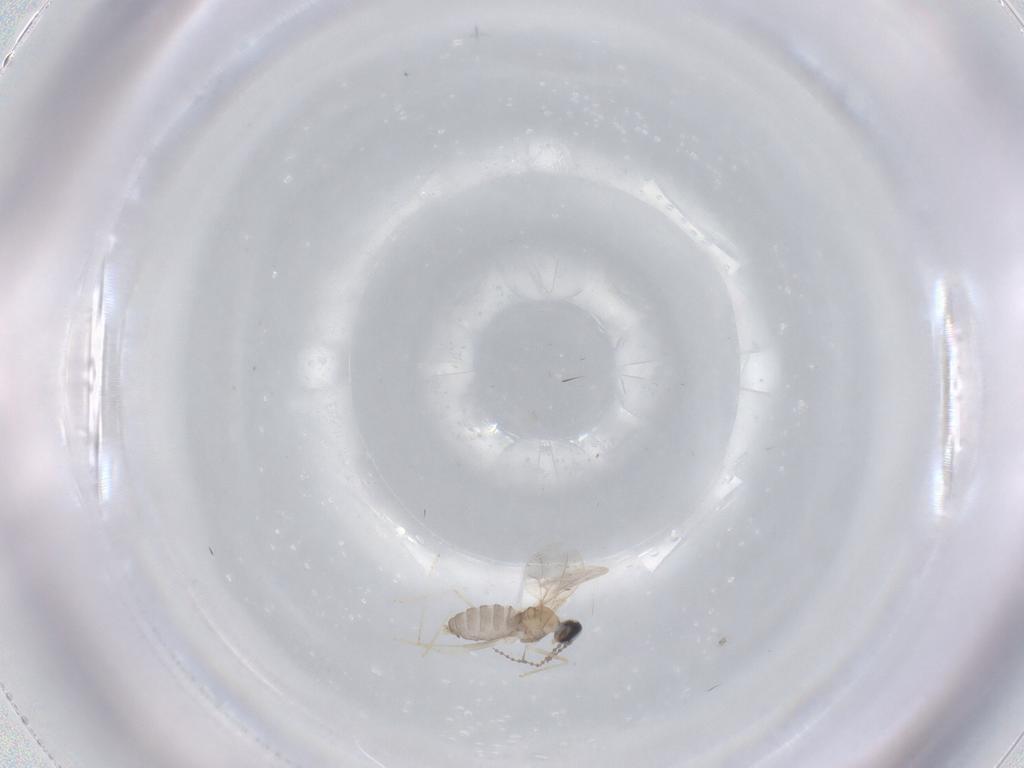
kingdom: Animalia
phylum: Arthropoda
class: Insecta
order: Diptera
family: Cecidomyiidae
